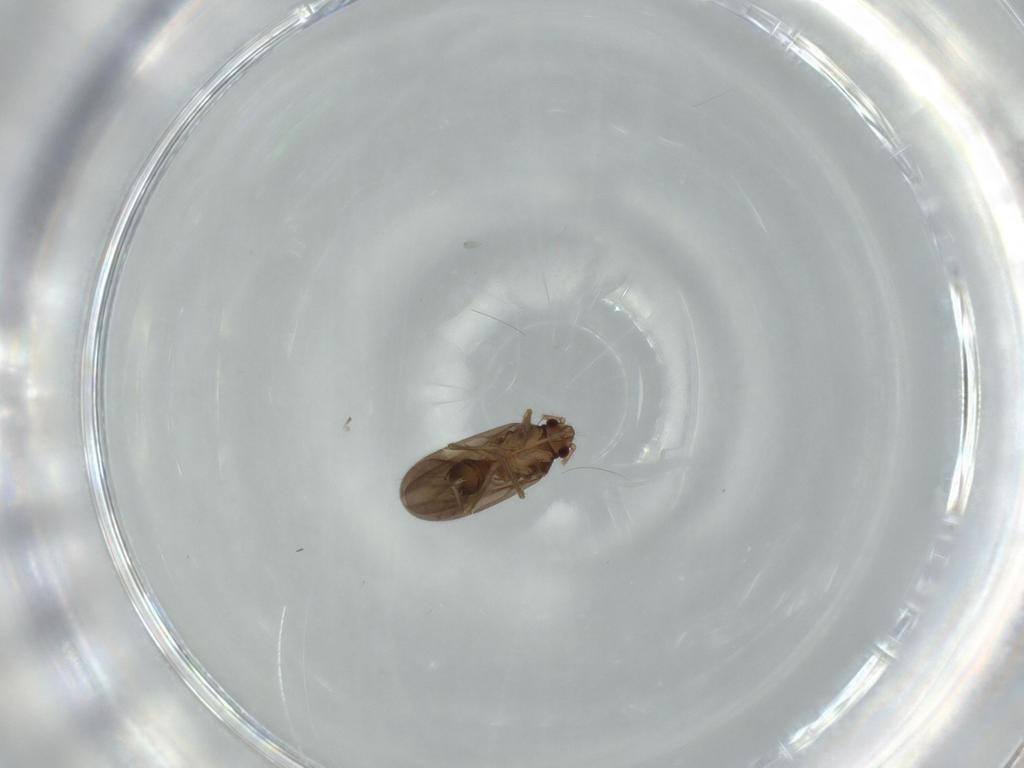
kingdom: Animalia
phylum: Arthropoda
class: Insecta
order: Hemiptera
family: Ceratocombidae
